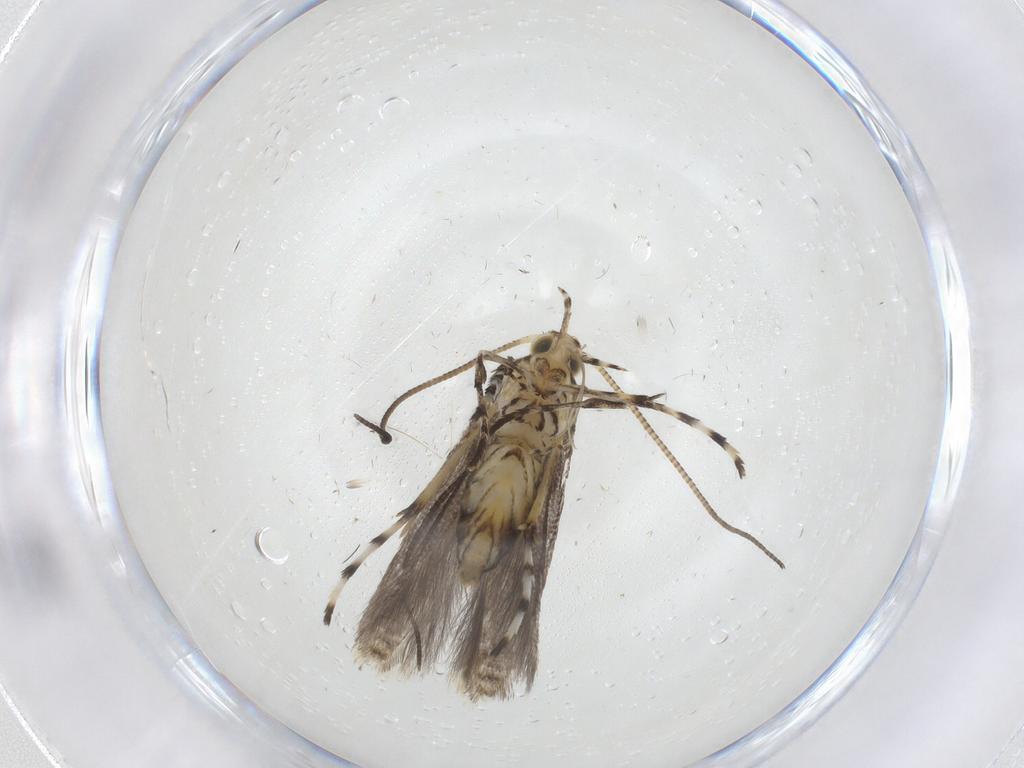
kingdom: Animalia
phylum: Arthropoda
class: Insecta
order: Lepidoptera
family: Gracillariidae
